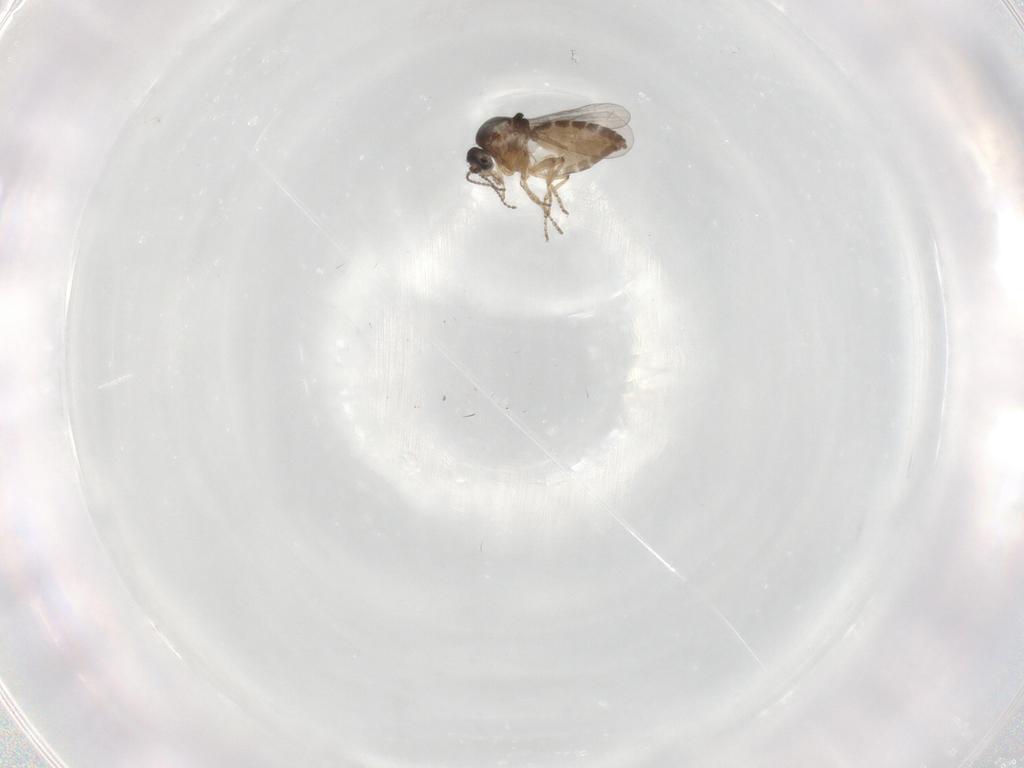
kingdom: Animalia
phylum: Arthropoda
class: Insecta
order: Diptera
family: Ceratopogonidae
